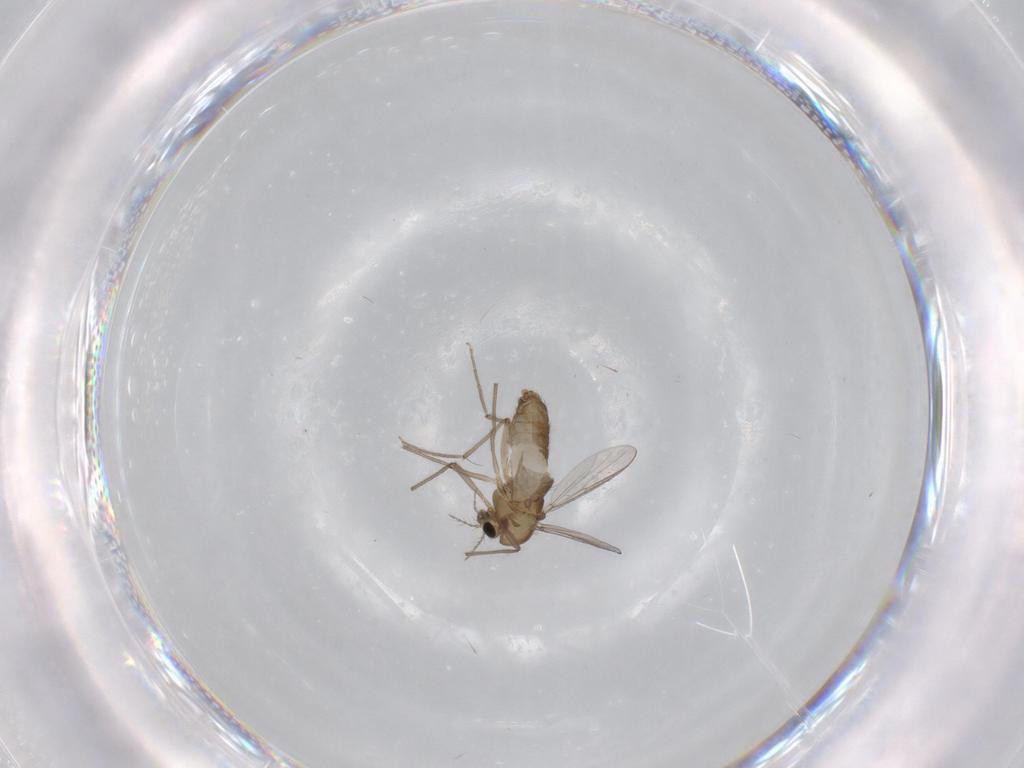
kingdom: Animalia
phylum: Arthropoda
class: Insecta
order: Diptera
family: Chironomidae
